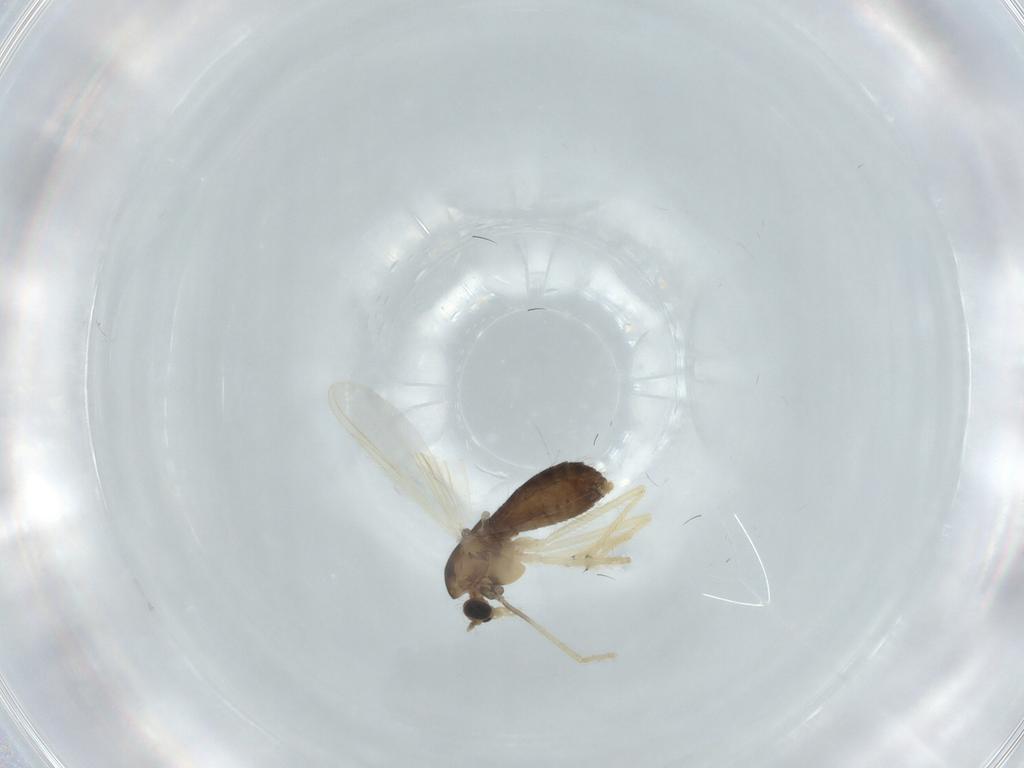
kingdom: Animalia
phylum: Arthropoda
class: Insecta
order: Diptera
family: Chironomidae
